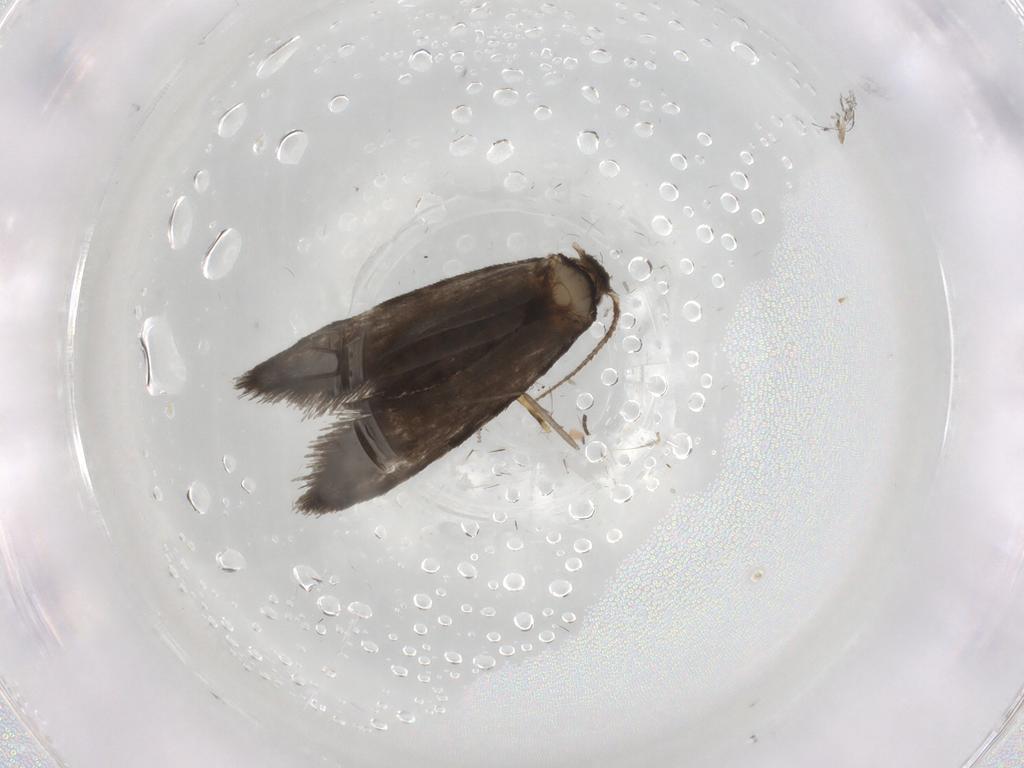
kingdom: Animalia
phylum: Arthropoda
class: Insecta
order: Lepidoptera
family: Psychidae
